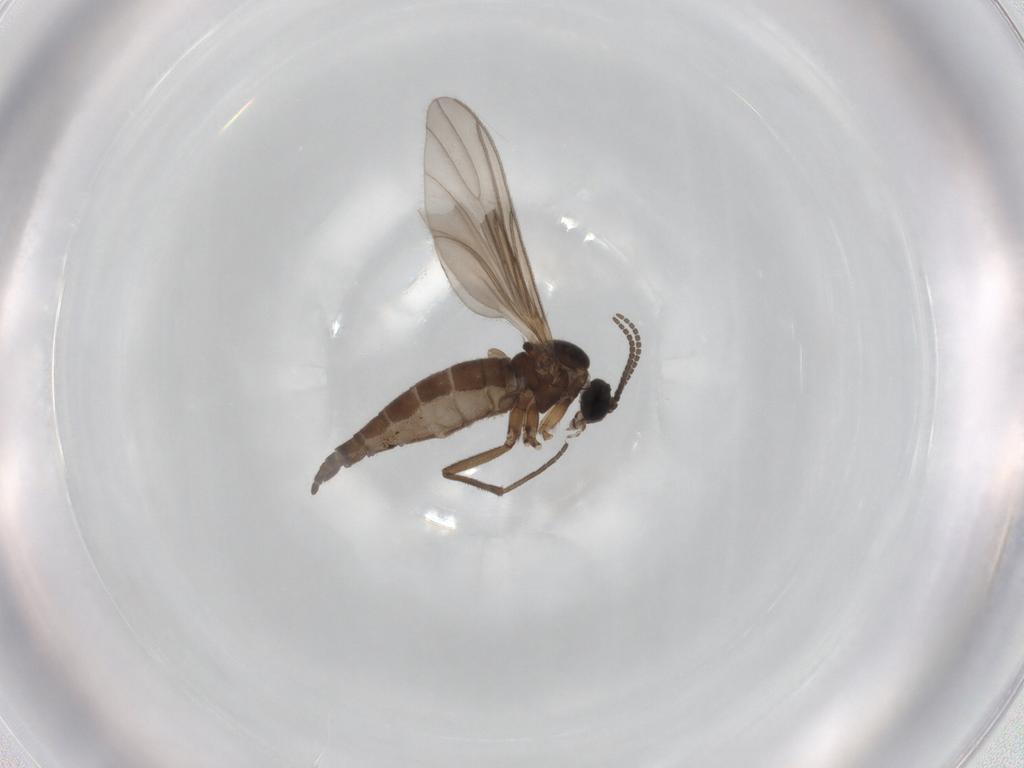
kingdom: Animalia
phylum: Arthropoda
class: Insecta
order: Diptera
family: Sciaridae
